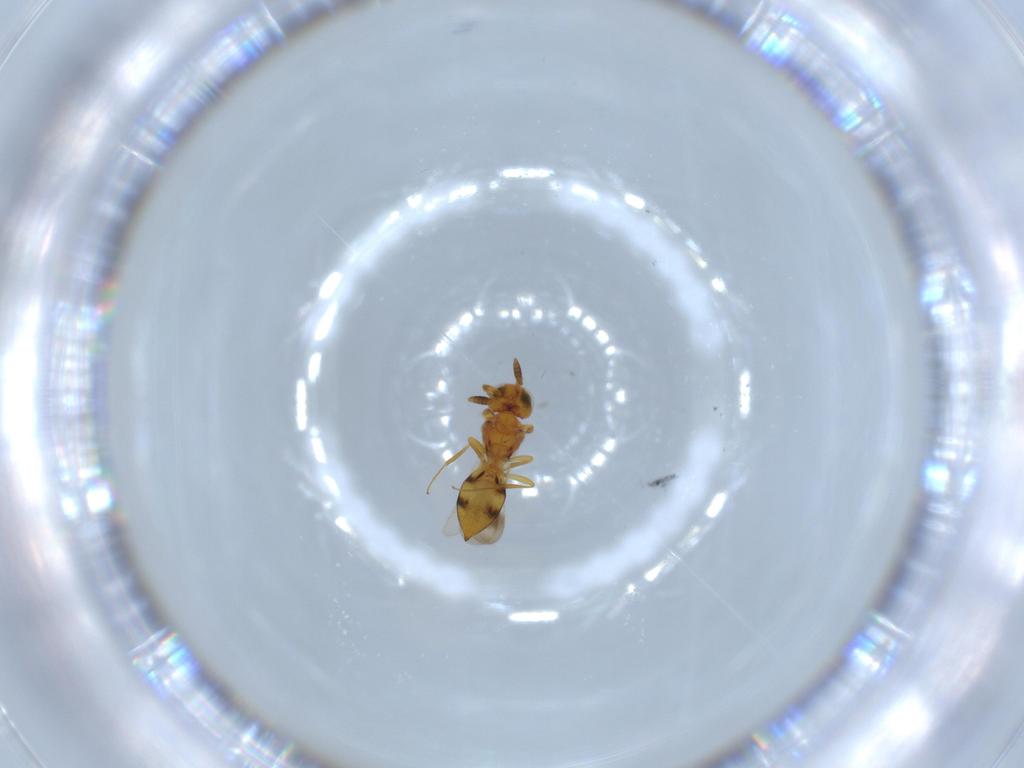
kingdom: Animalia
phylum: Arthropoda
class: Insecta
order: Hymenoptera
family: Scelionidae
